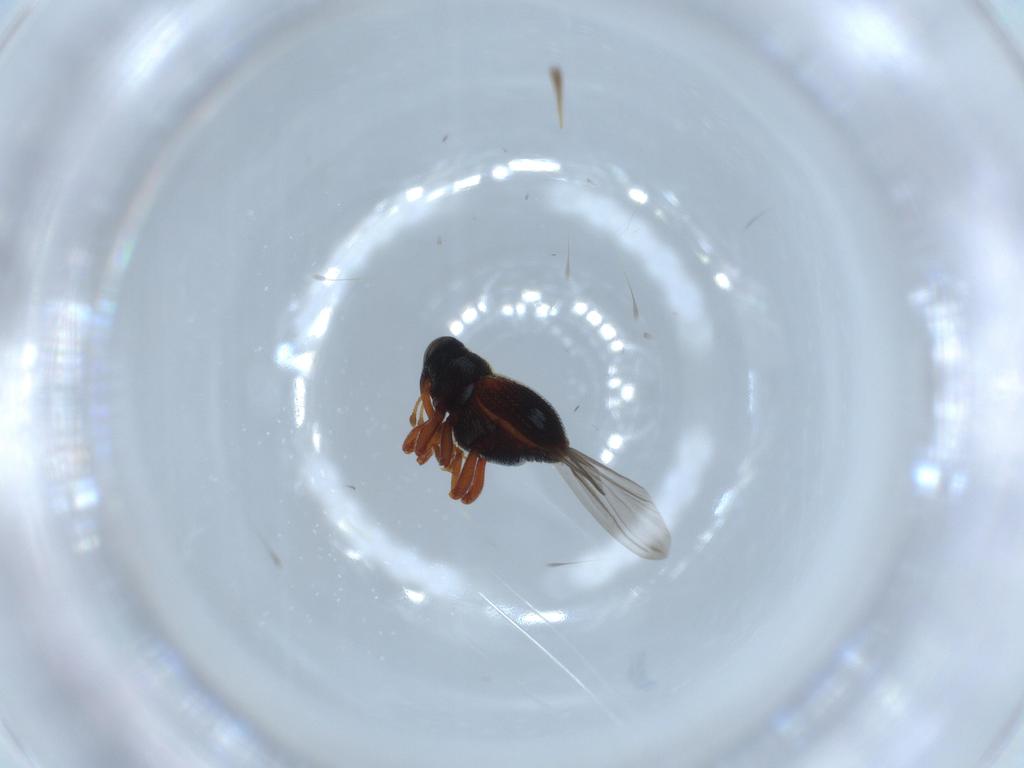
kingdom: Animalia
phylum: Arthropoda
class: Insecta
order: Coleoptera
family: Curculionidae
